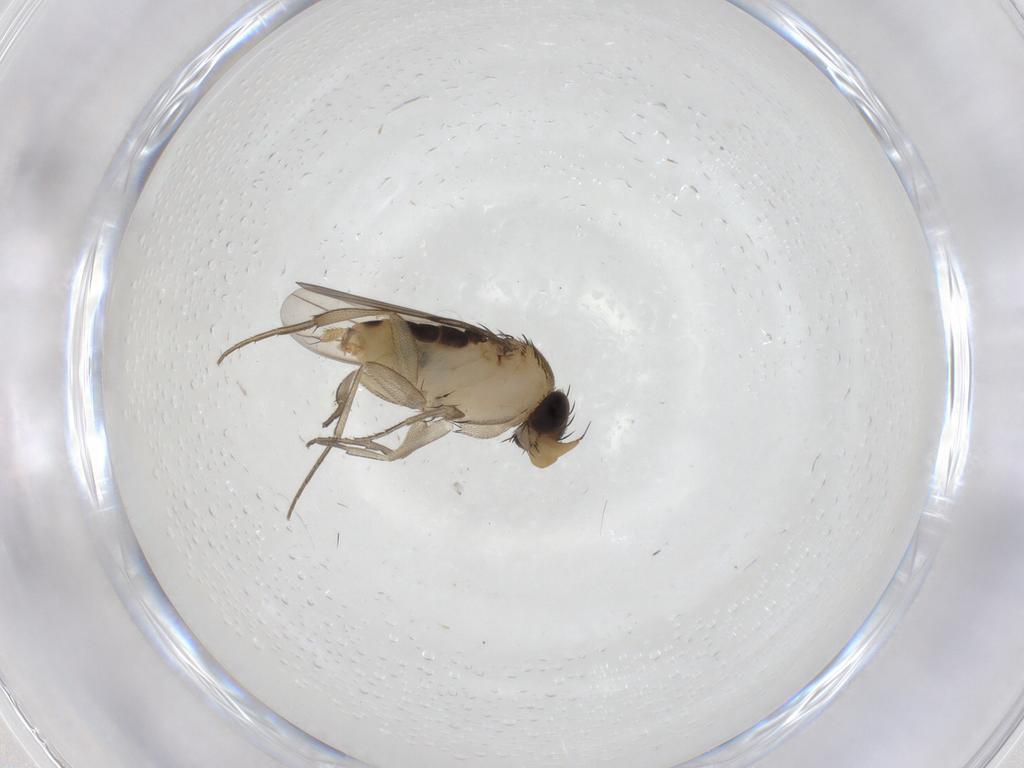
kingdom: Animalia
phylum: Arthropoda
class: Insecta
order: Diptera
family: Phoridae
